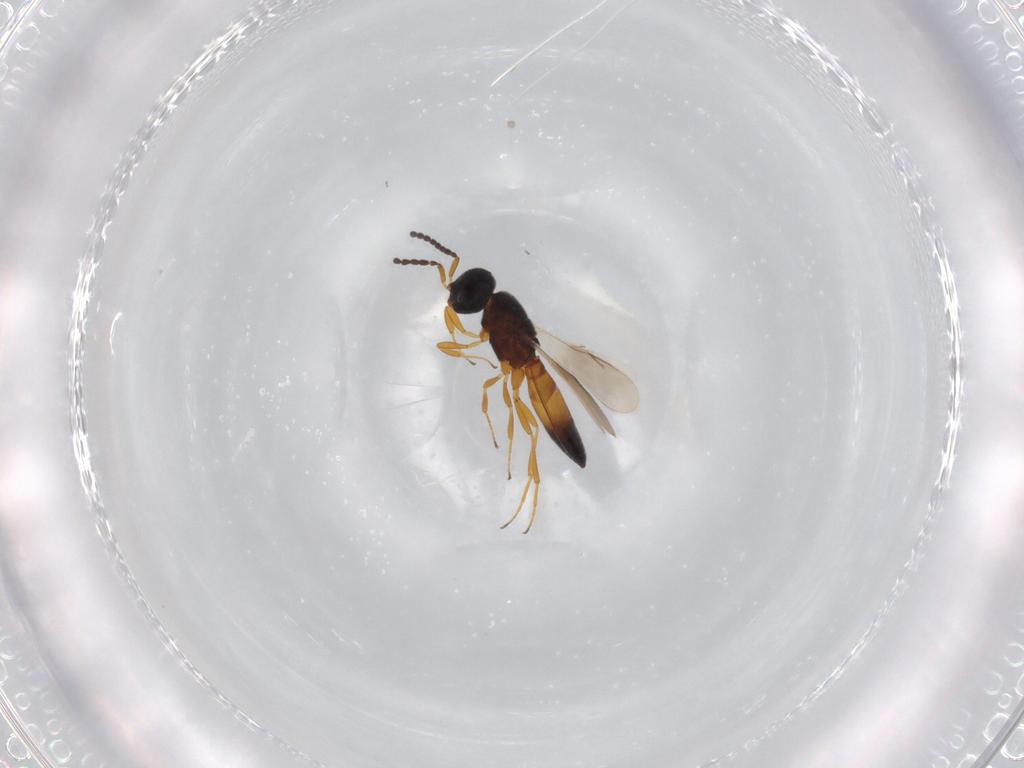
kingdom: Animalia
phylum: Arthropoda
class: Insecta
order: Hymenoptera
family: Scelionidae
